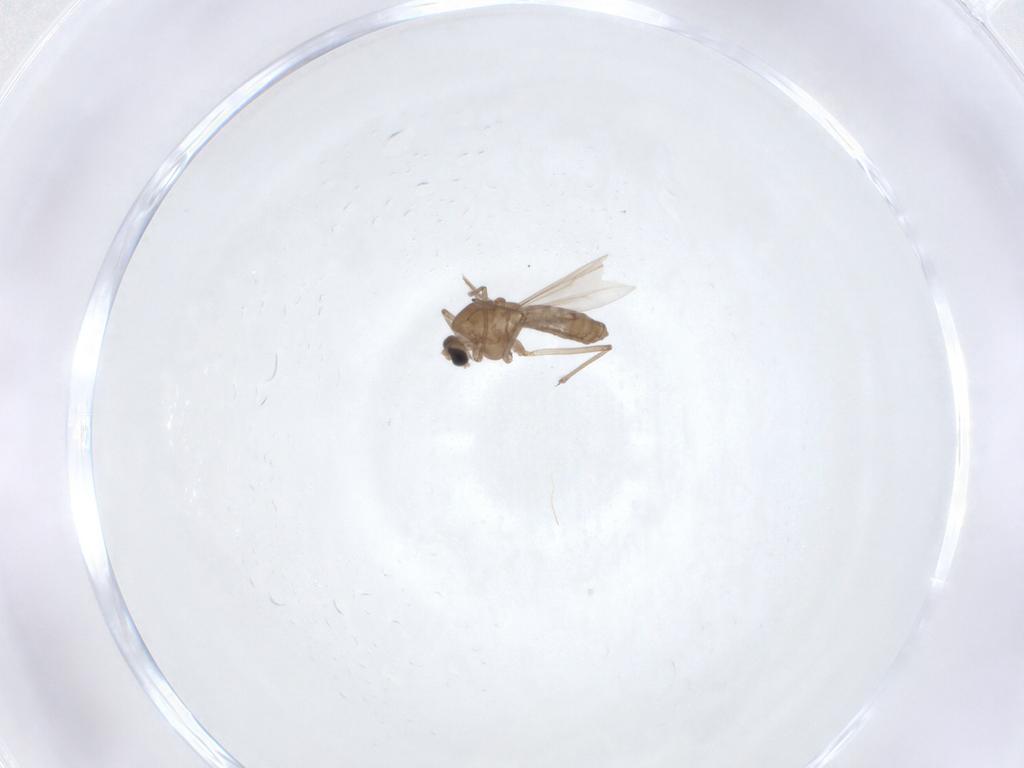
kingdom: Animalia
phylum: Arthropoda
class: Insecta
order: Diptera
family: Chironomidae
